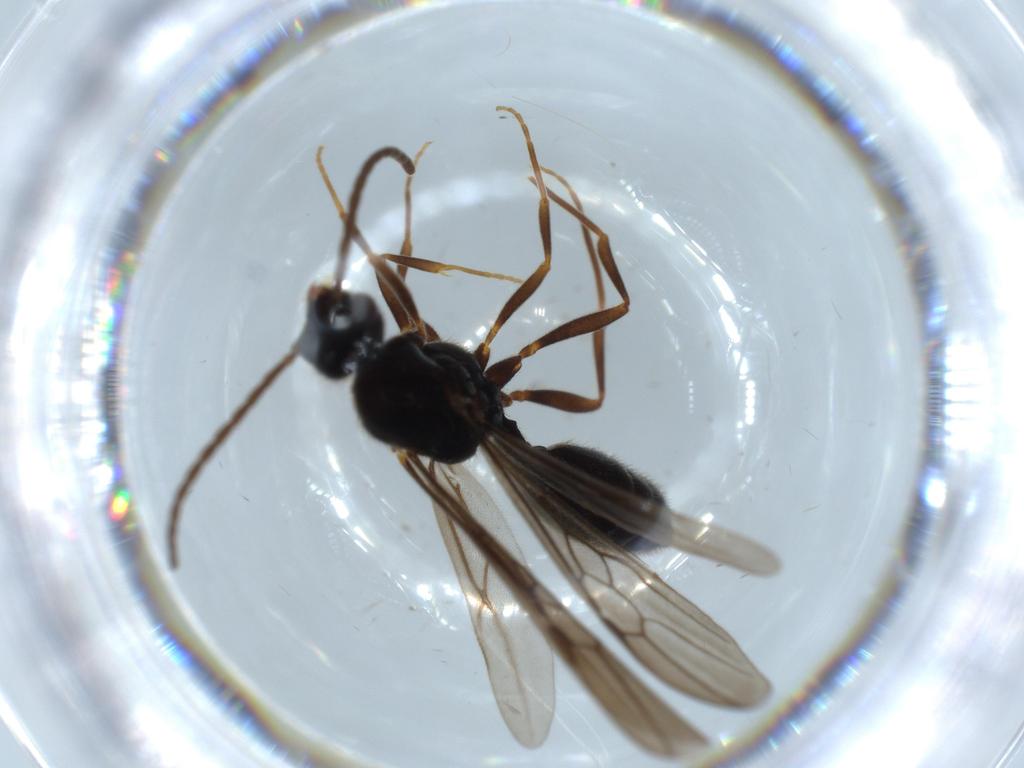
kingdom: Animalia
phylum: Arthropoda
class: Insecta
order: Hymenoptera
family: Formicidae
